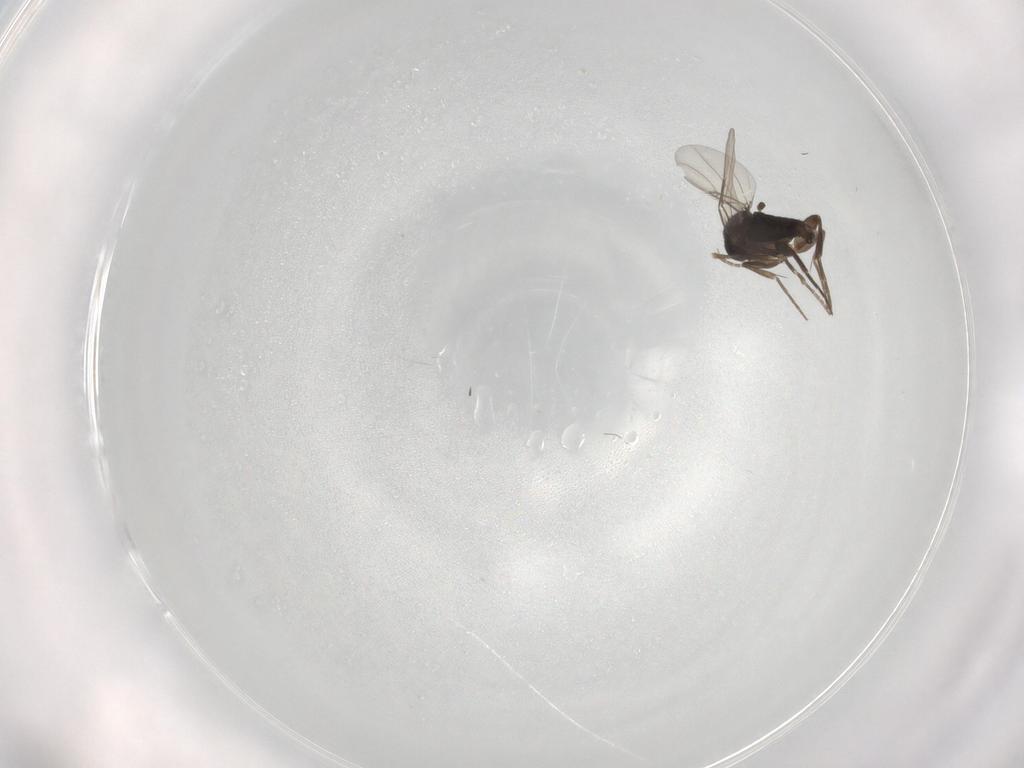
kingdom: Animalia
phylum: Arthropoda
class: Insecta
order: Diptera
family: Phoridae
